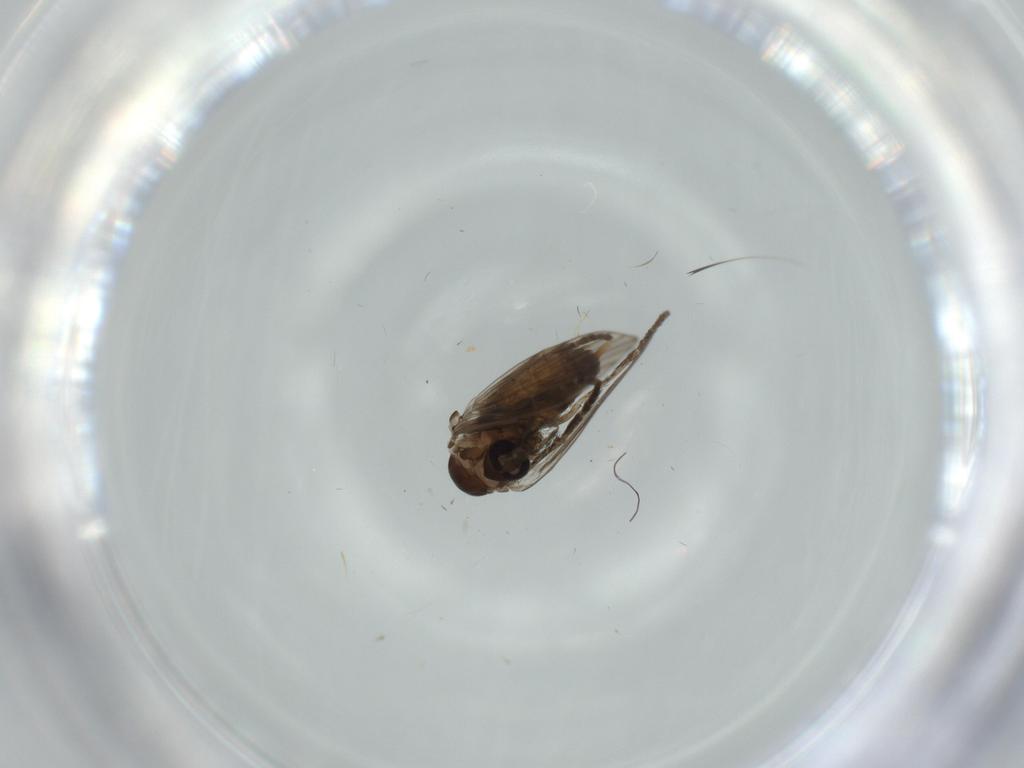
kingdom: Animalia
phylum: Arthropoda
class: Insecta
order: Diptera
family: Psychodidae
